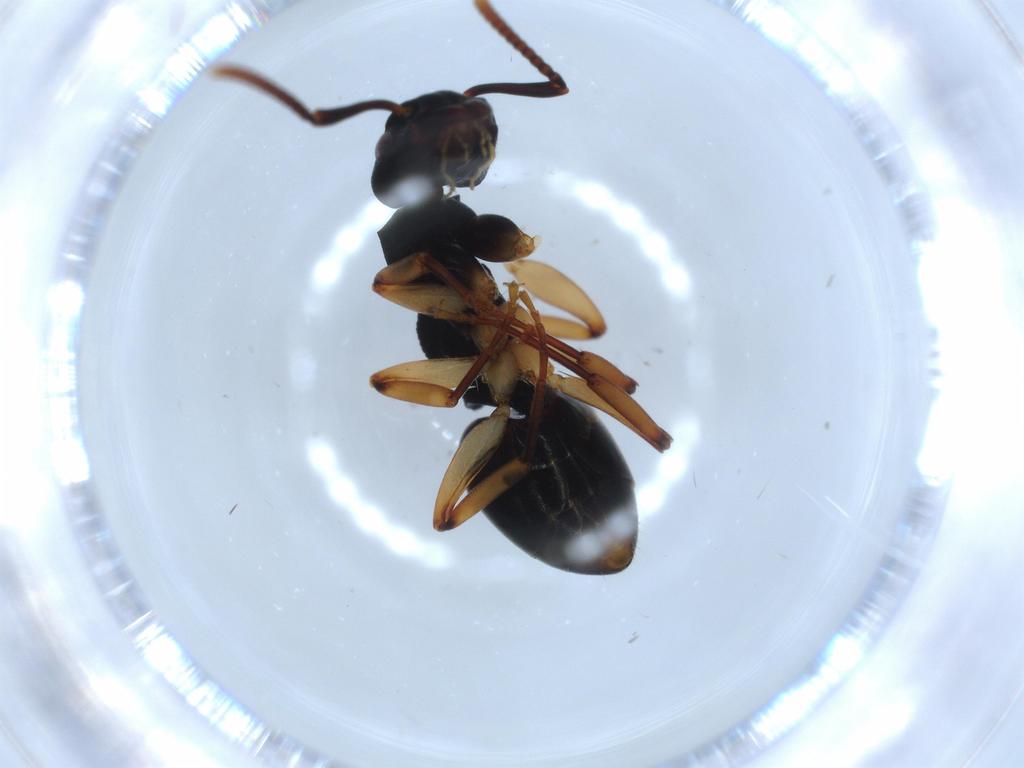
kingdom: Animalia
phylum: Arthropoda
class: Insecta
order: Hymenoptera
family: Formicidae
